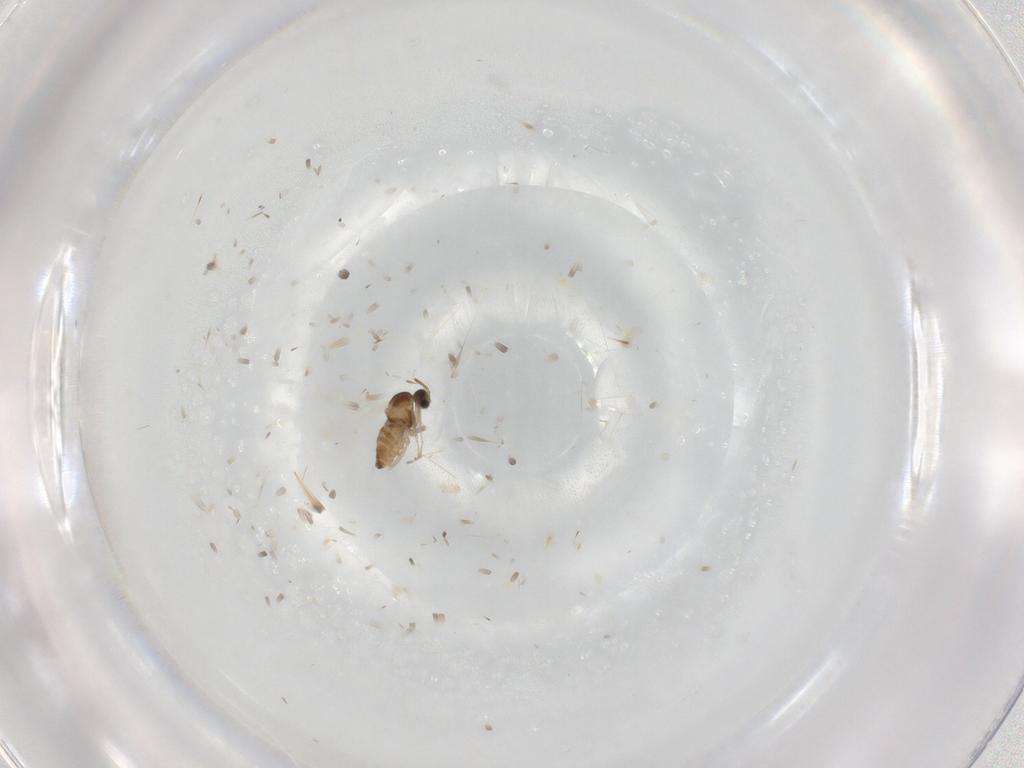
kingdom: Animalia
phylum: Arthropoda
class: Insecta
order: Diptera
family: Cecidomyiidae
